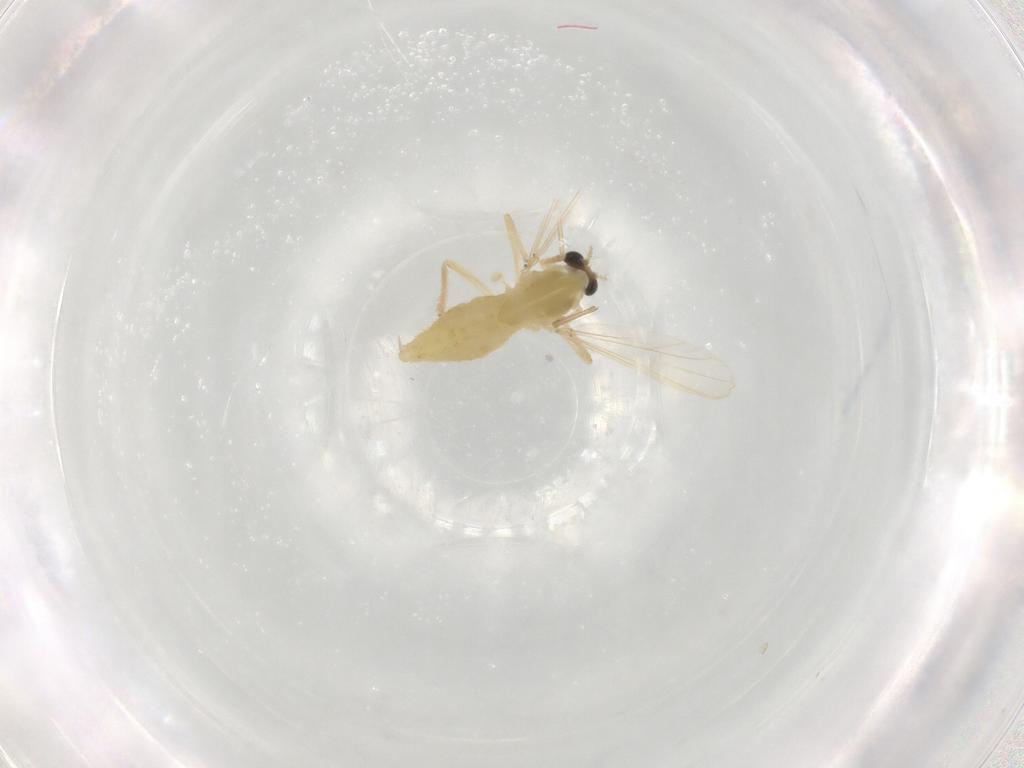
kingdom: Animalia
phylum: Arthropoda
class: Insecta
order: Diptera
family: Chironomidae
